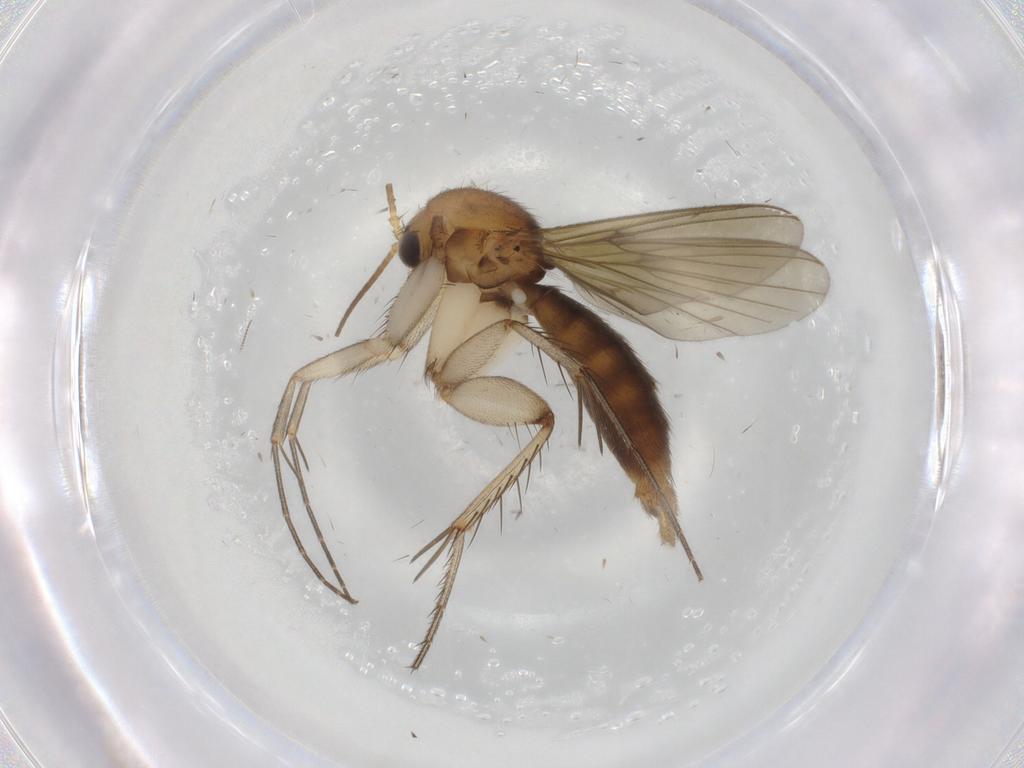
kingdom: Animalia
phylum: Arthropoda
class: Insecta
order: Diptera
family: Mycetophilidae
